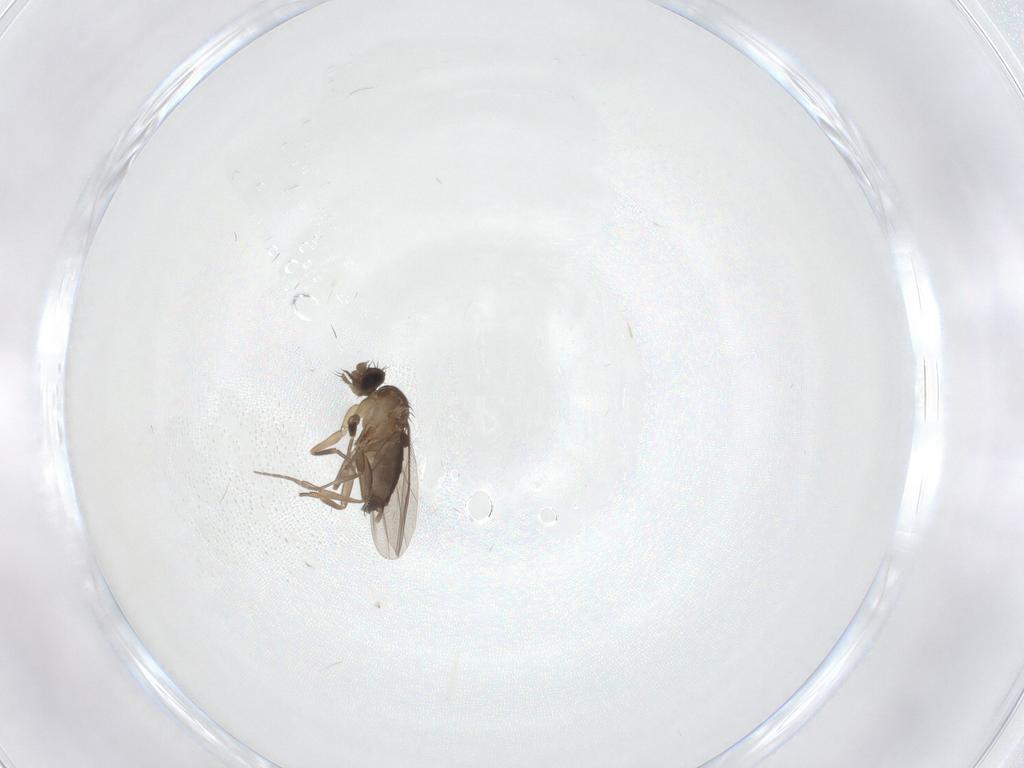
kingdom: Animalia
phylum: Arthropoda
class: Insecta
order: Diptera
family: Phoridae
